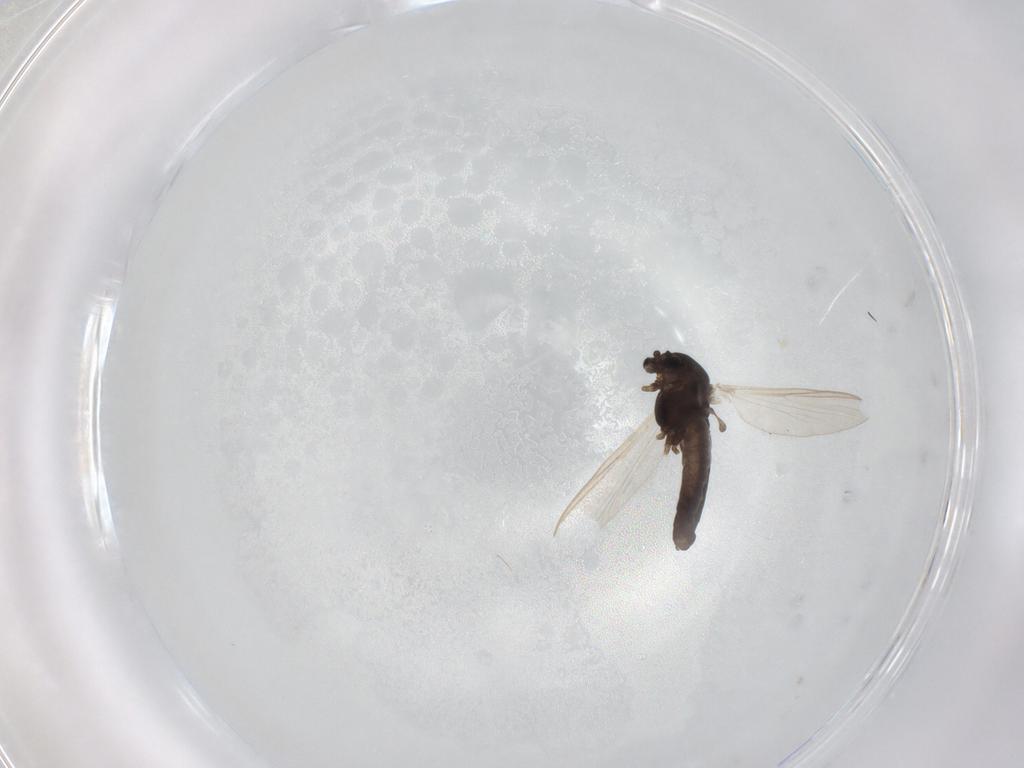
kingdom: Animalia
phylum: Arthropoda
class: Insecta
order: Diptera
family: Chironomidae
